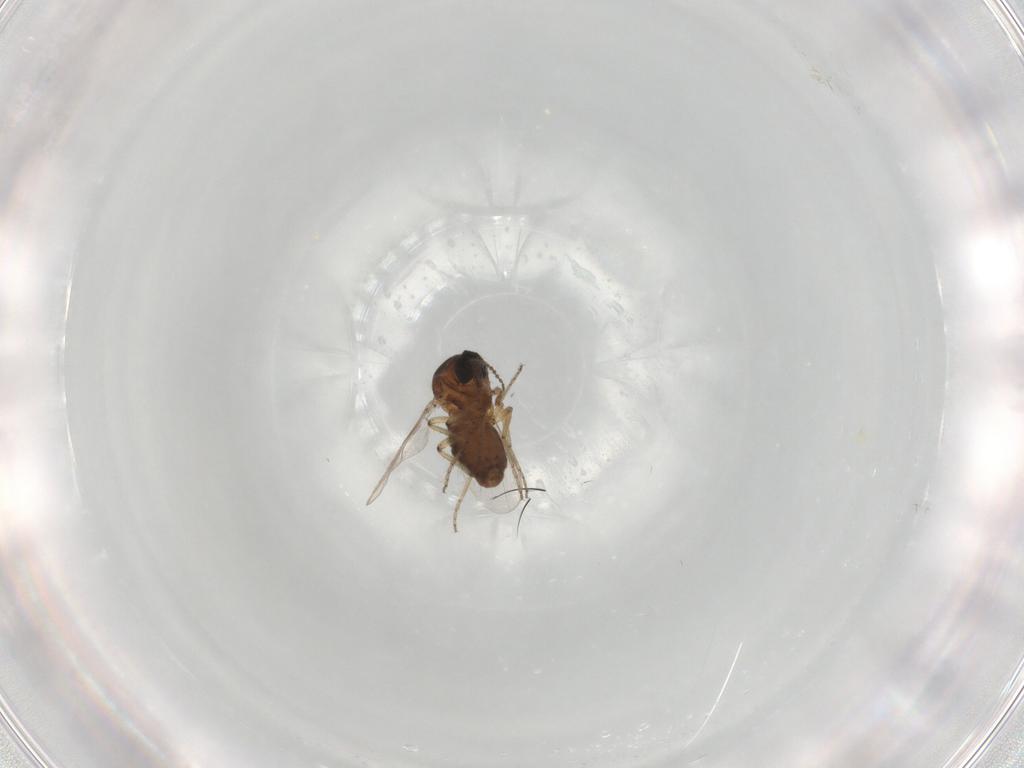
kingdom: Animalia
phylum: Arthropoda
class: Insecta
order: Diptera
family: Ceratopogonidae
